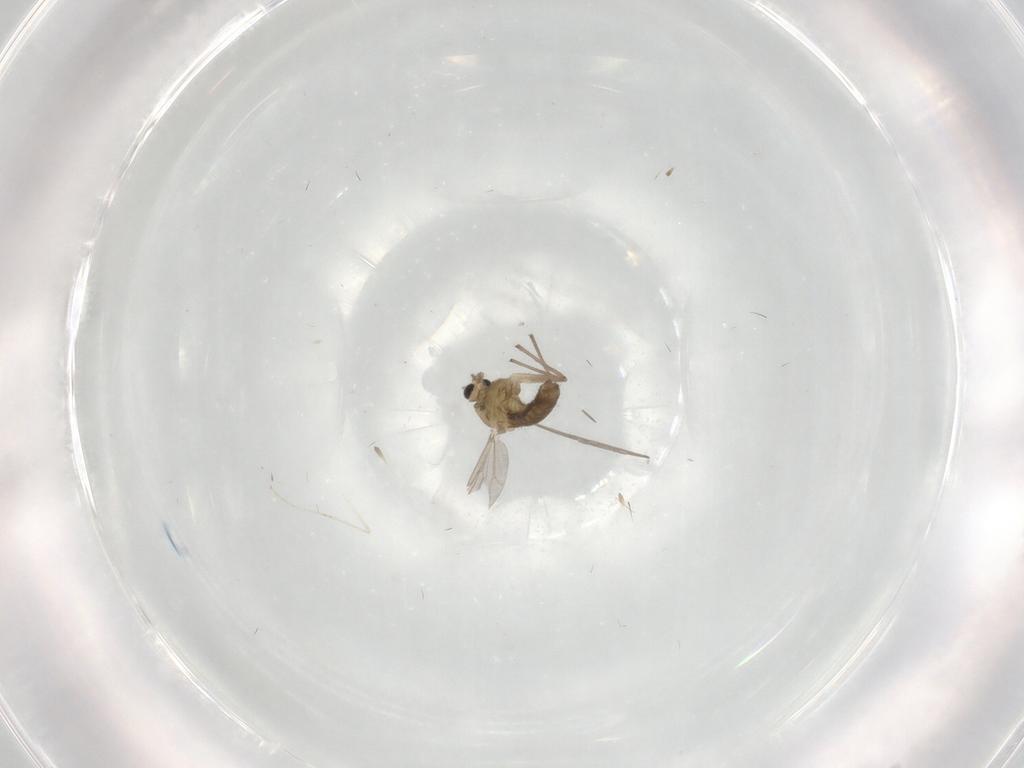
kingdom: Animalia
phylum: Arthropoda
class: Insecta
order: Diptera
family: Chironomidae
